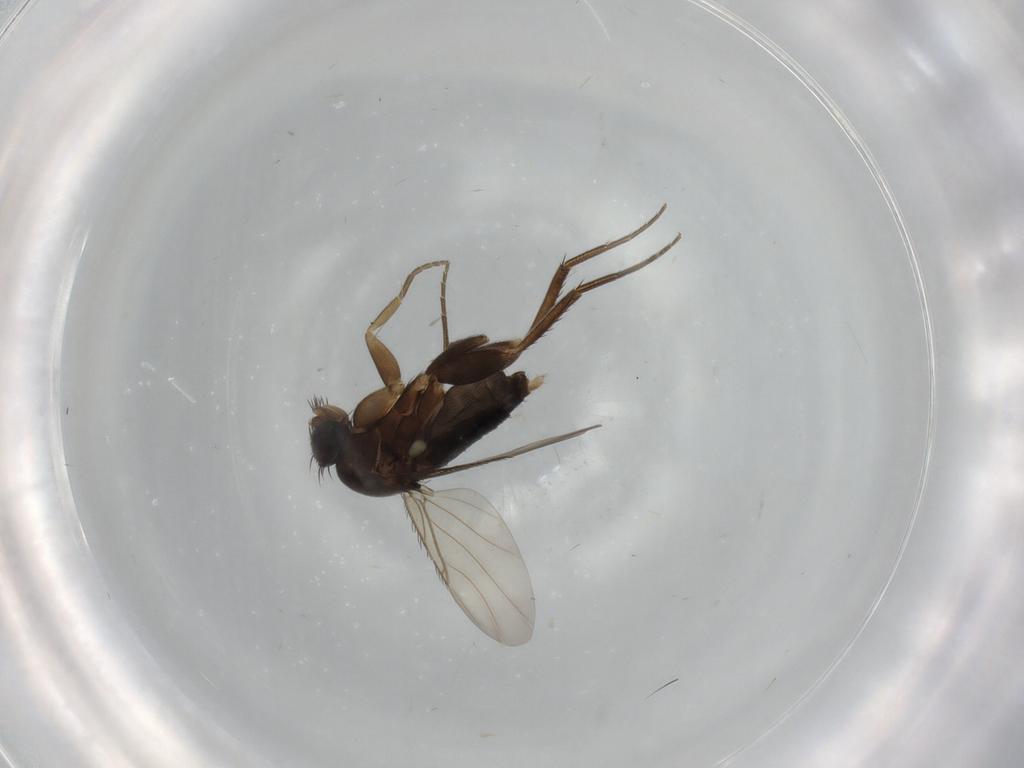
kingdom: Animalia
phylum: Arthropoda
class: Insecta
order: Diptera
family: Phoridae
